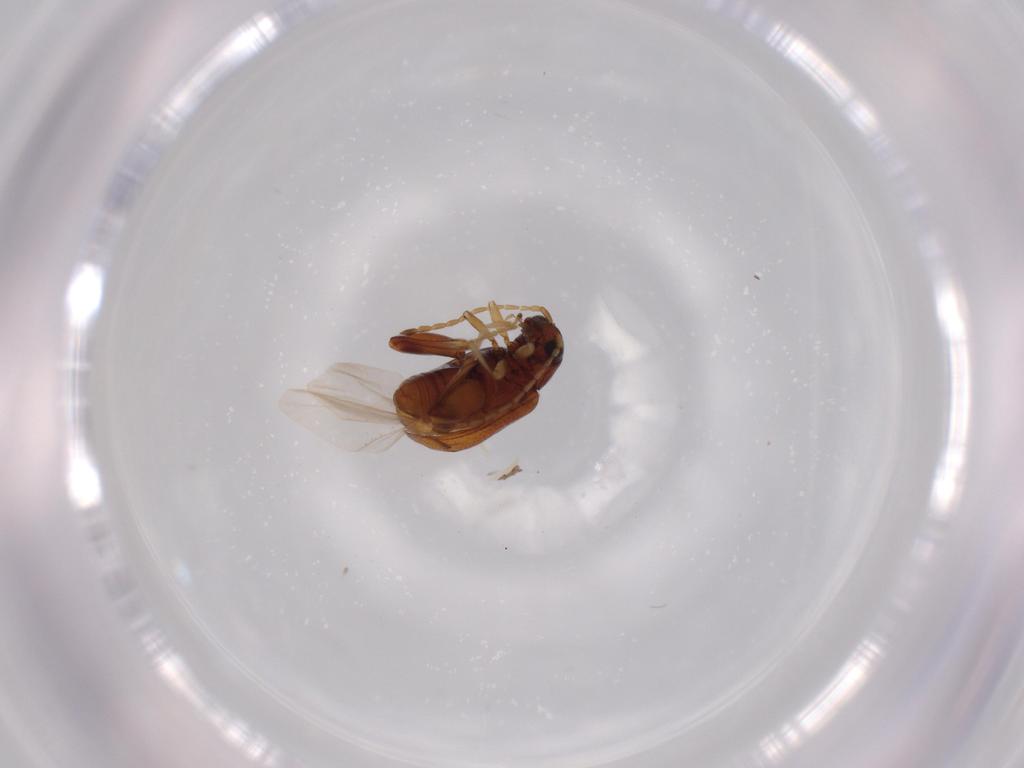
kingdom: Animalia
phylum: Arthropoda
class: Insecta
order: Coleoptera
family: Chrysomelidae
